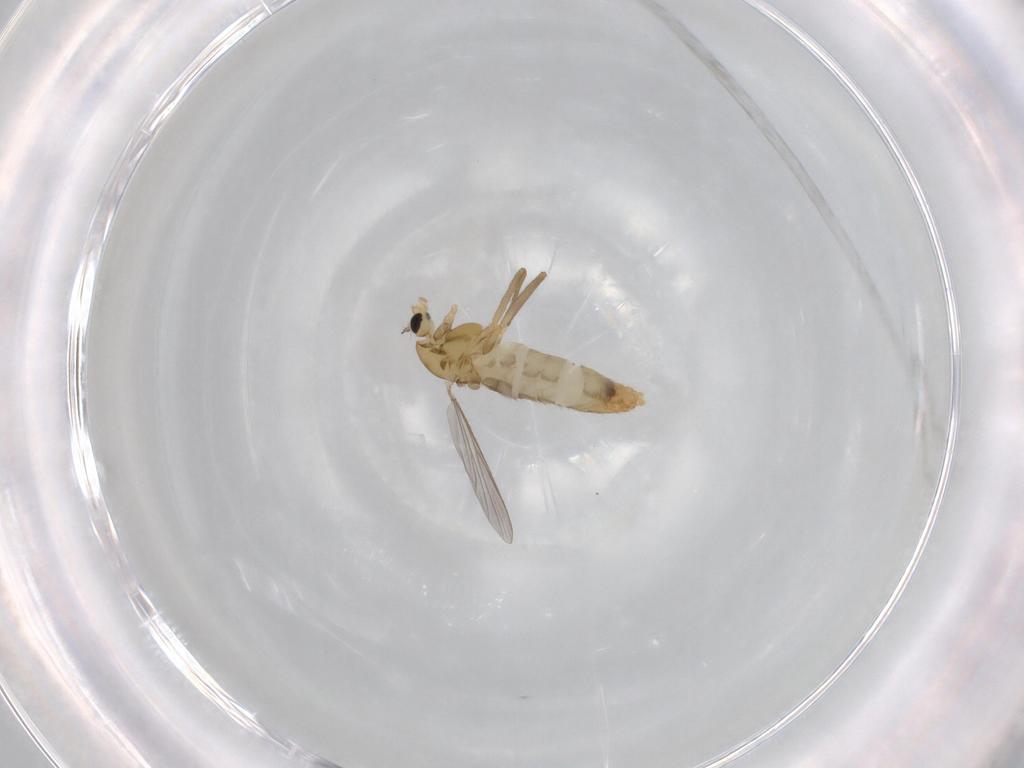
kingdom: Animalia
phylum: Arthropoda
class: Insecta
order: Diptera
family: Chironomidae
